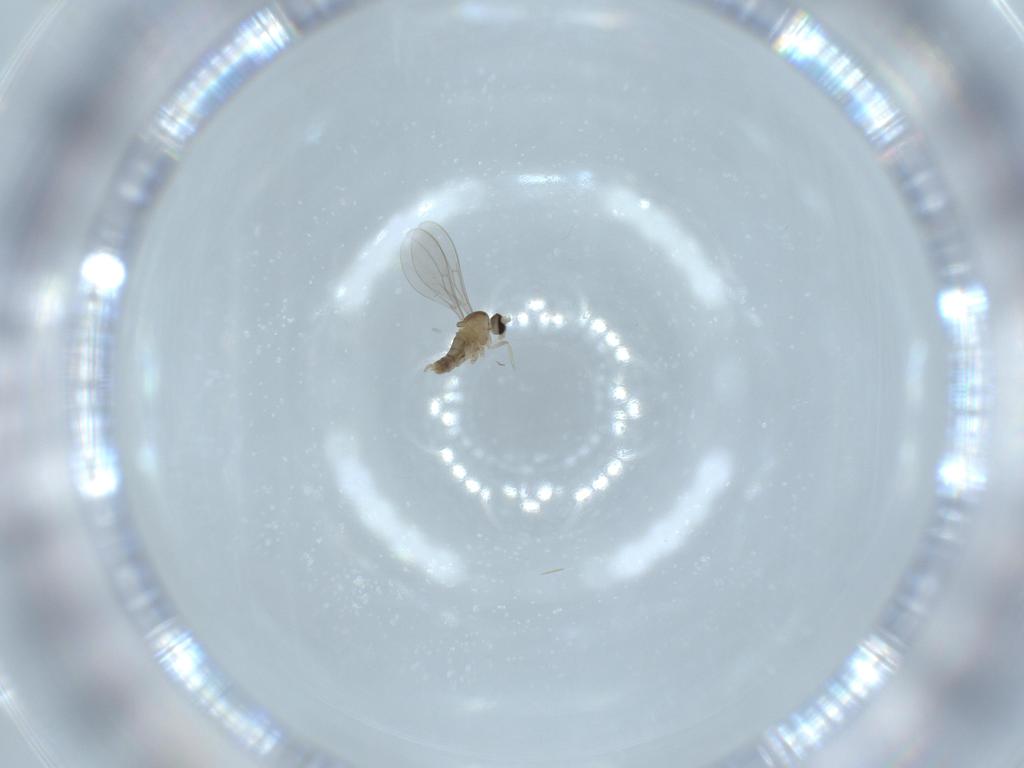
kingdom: Animalia
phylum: Arthropoda
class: Insecta
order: Diptera
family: Cecidomyiidae
